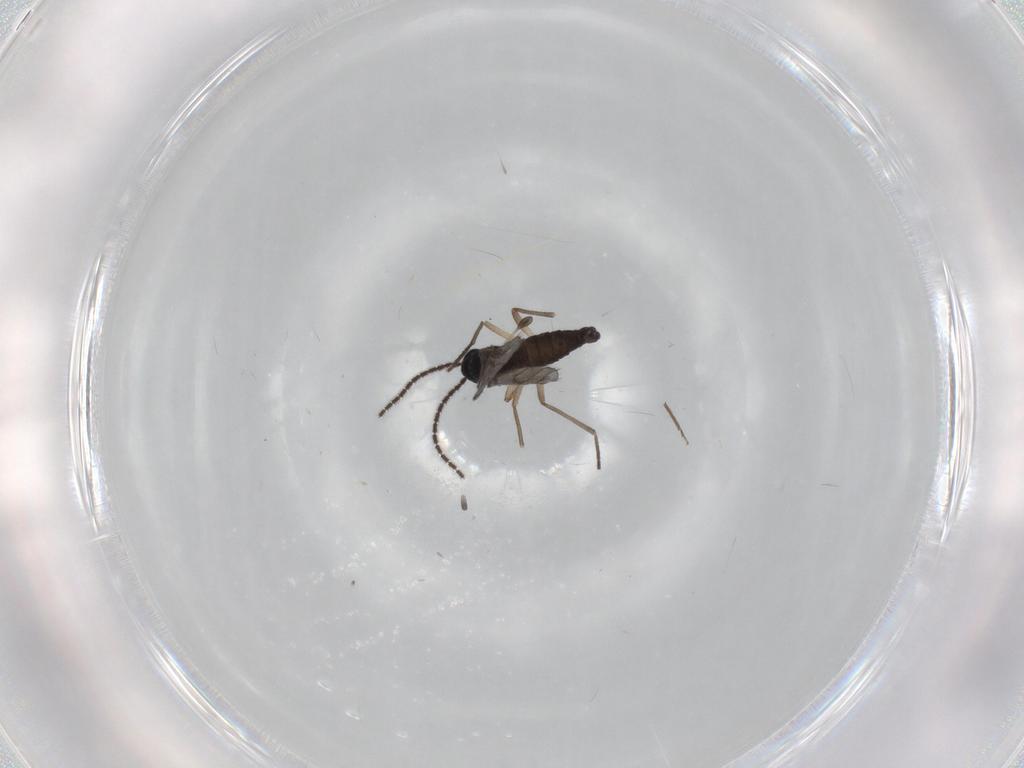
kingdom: Animalia
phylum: Arthropoda
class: Insecta
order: Diptera
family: Sciaridae
